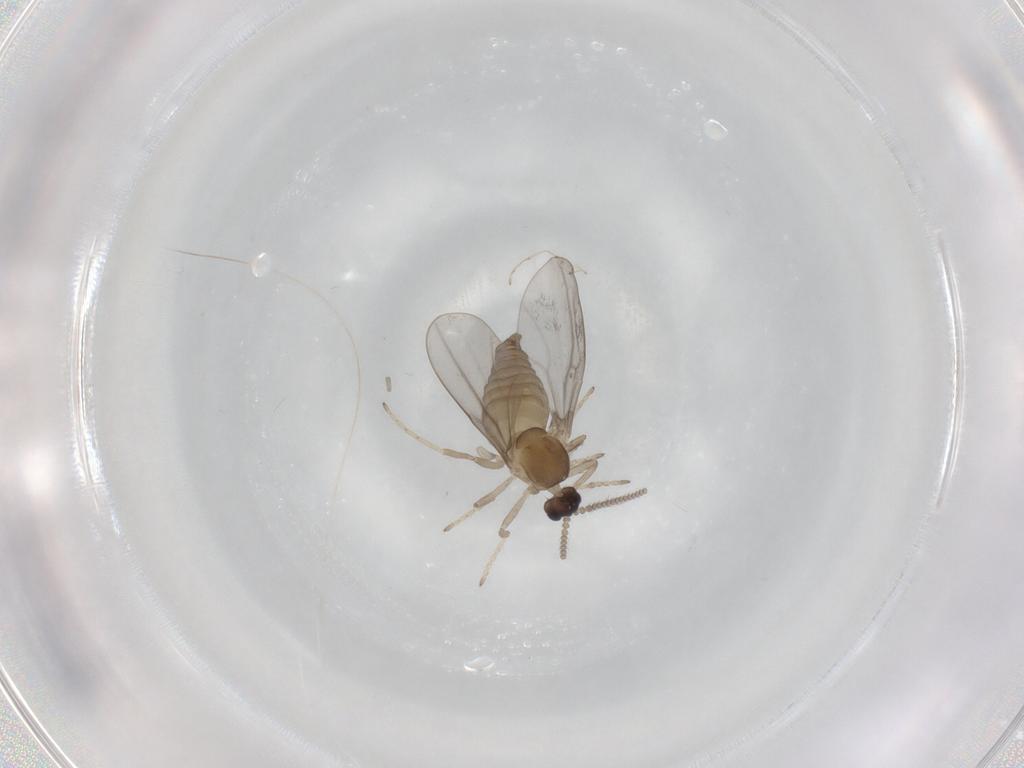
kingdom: Animalia
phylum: Arthropoda
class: Insecta
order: Diptera
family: Cecidomyiidae
